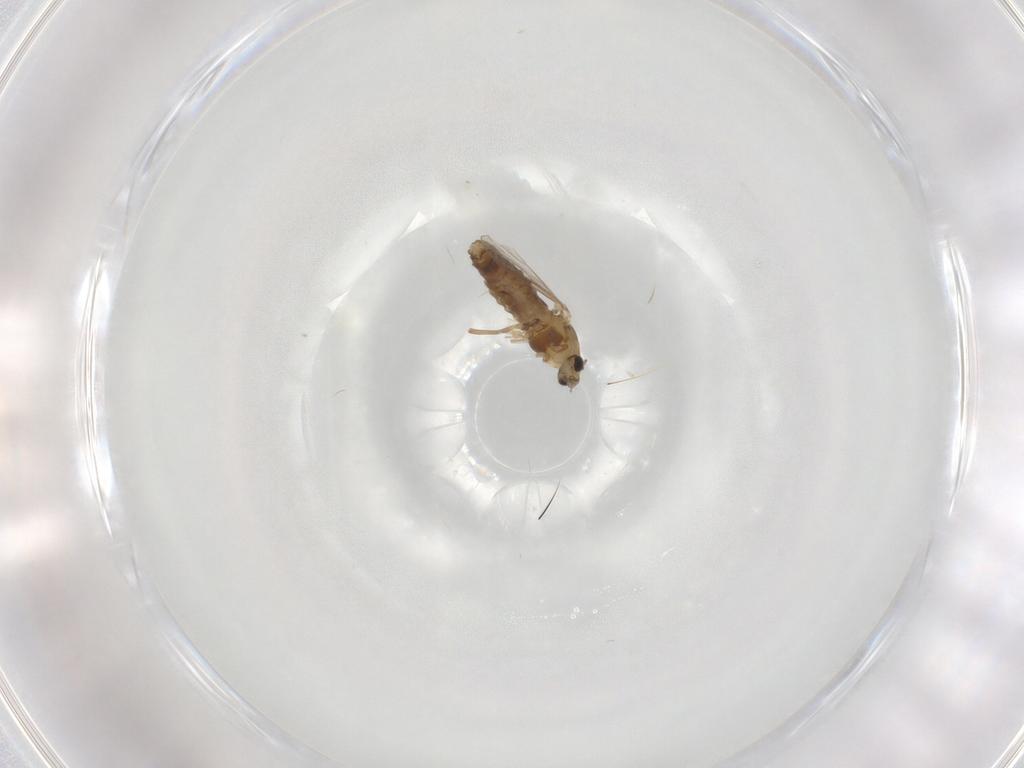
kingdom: Animalia
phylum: Arthropoda
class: Insecta
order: Diptera
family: Chironomidae
